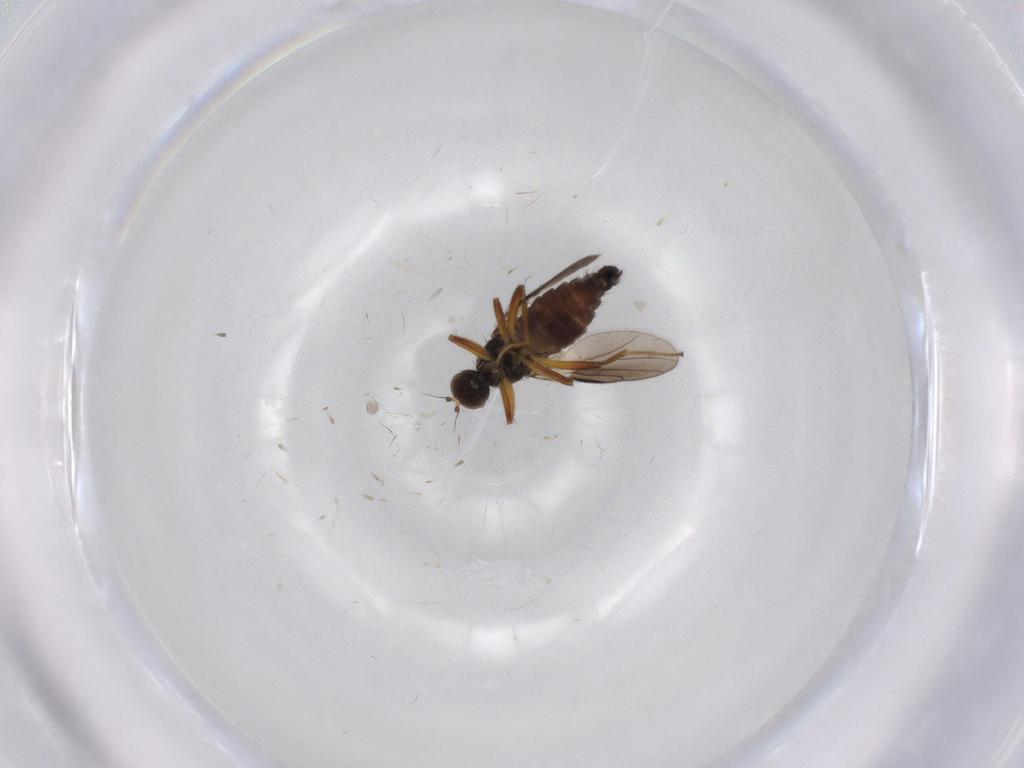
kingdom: Animalia
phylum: Arthropoda
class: Insecta
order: Diptera
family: Hybotidae
